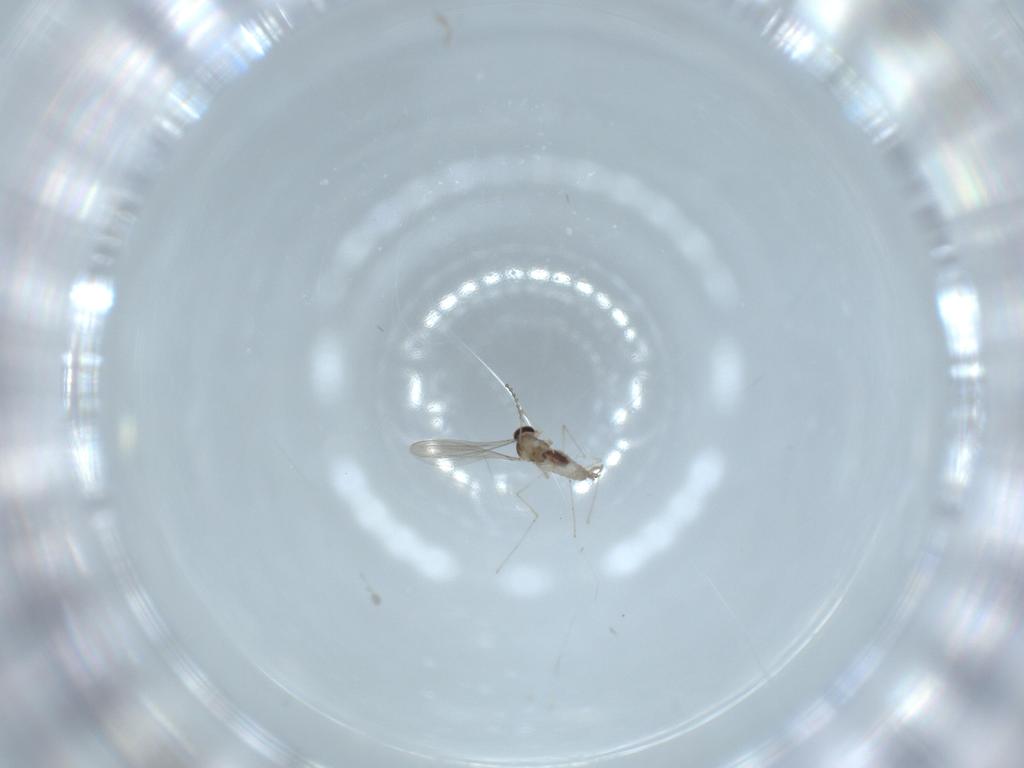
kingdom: Animalia
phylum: Arthropoda
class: Insecta
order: Diptera
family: Cecidomyiidae
